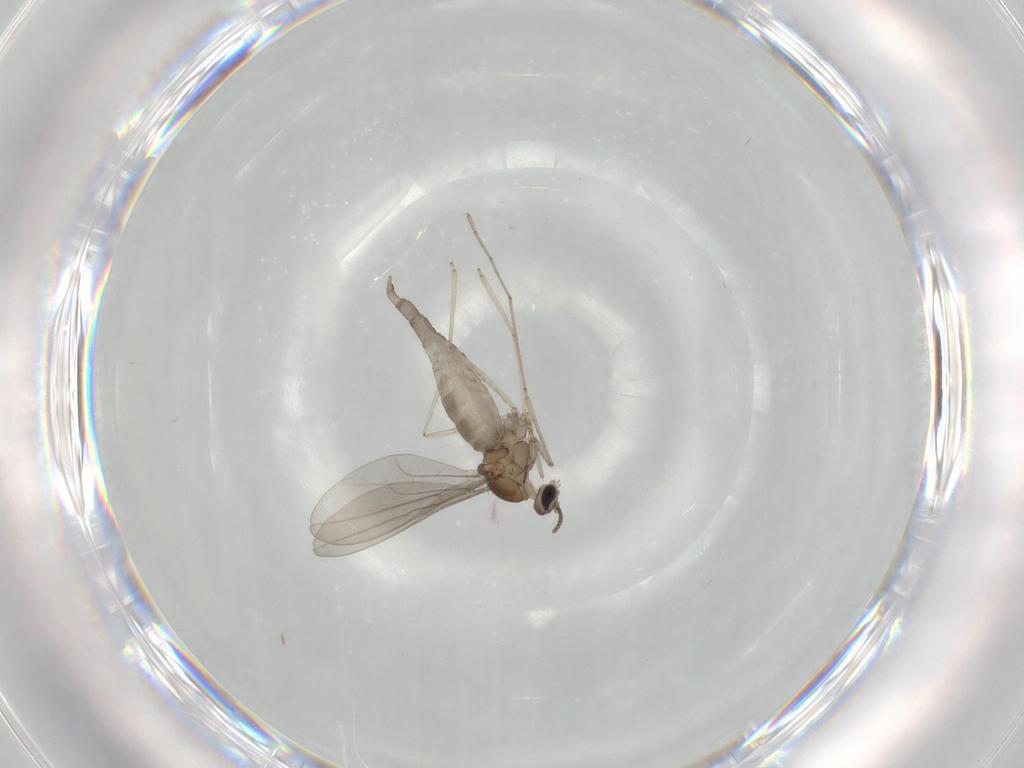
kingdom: Animalia
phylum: Arthropoda
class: Insecta
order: Diptera
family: Cecidomyiidae
